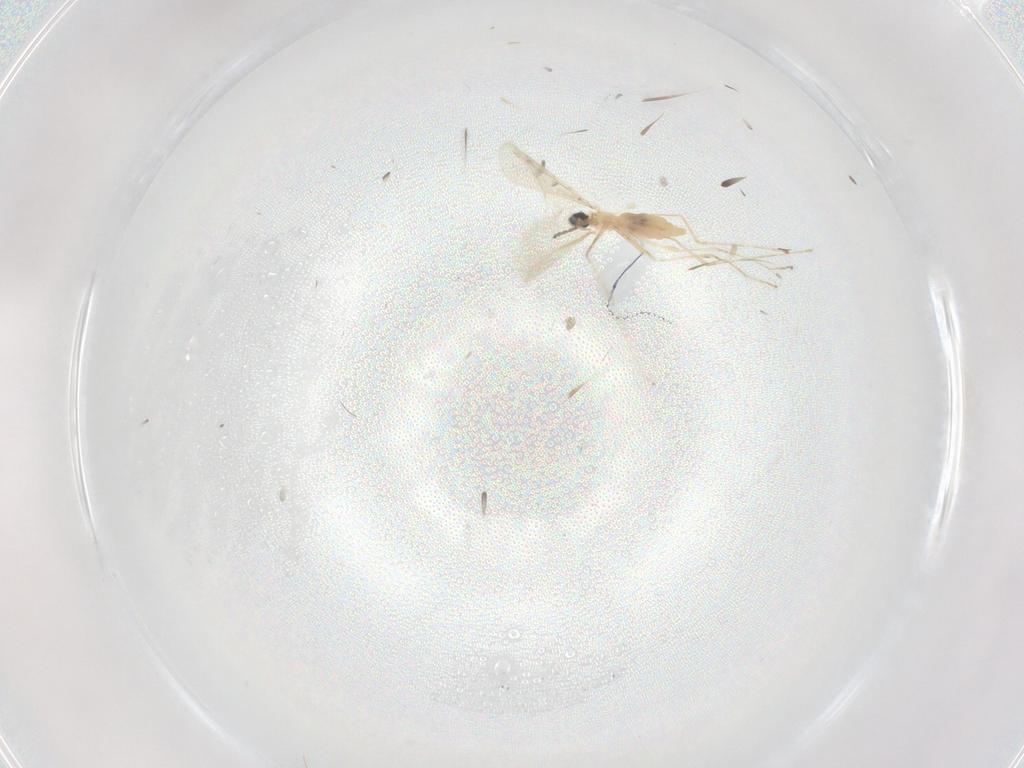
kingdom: Animalia
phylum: Arthropoda
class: Insecta
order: Diptera
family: Cecidomyiidae
